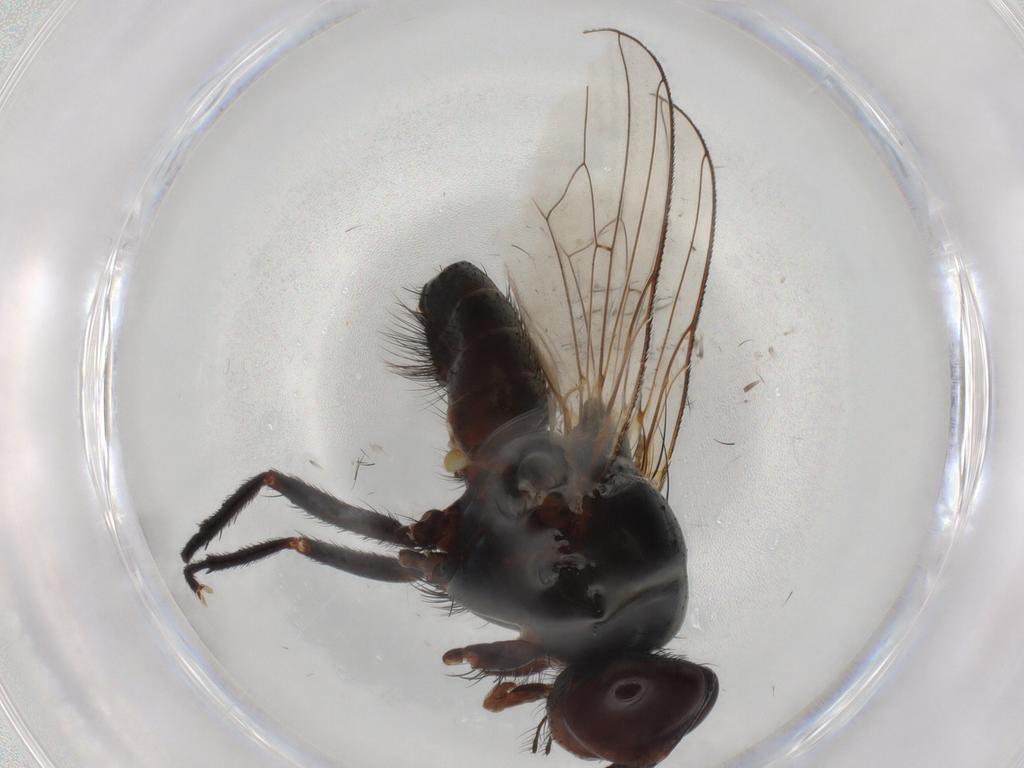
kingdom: Animalia
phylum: Arthropoda
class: Insecta
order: Diptera
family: Anthomyiidae
